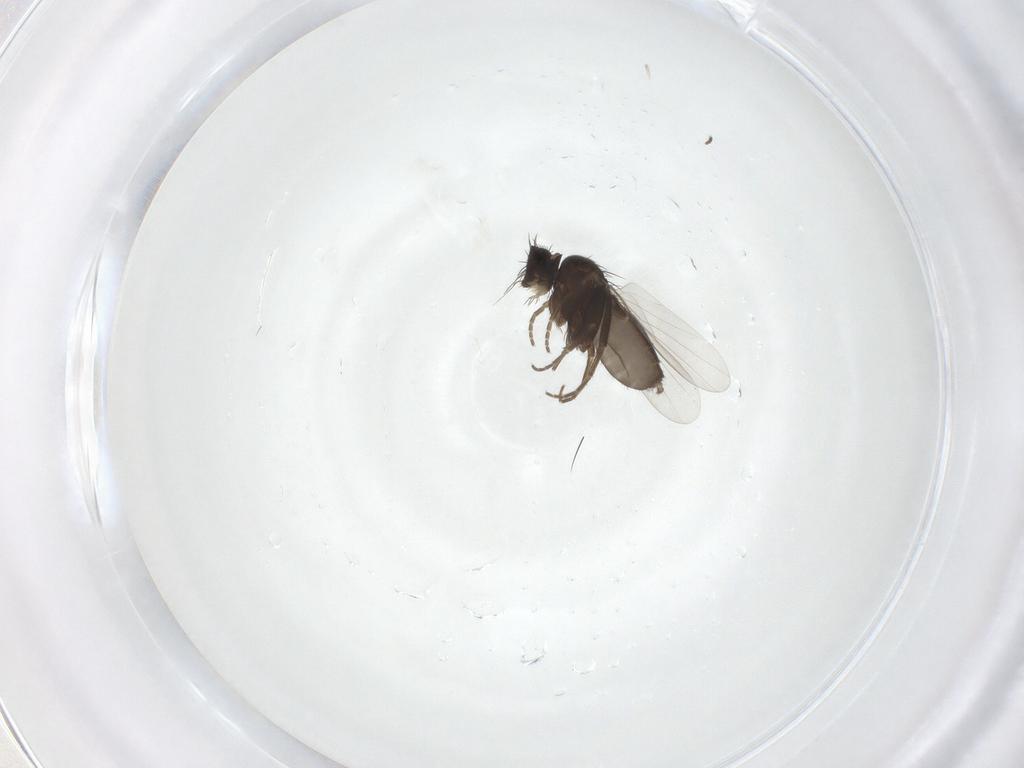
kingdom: Animalia
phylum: Arthropoda
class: Insecta
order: Diptera
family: Phoridae
